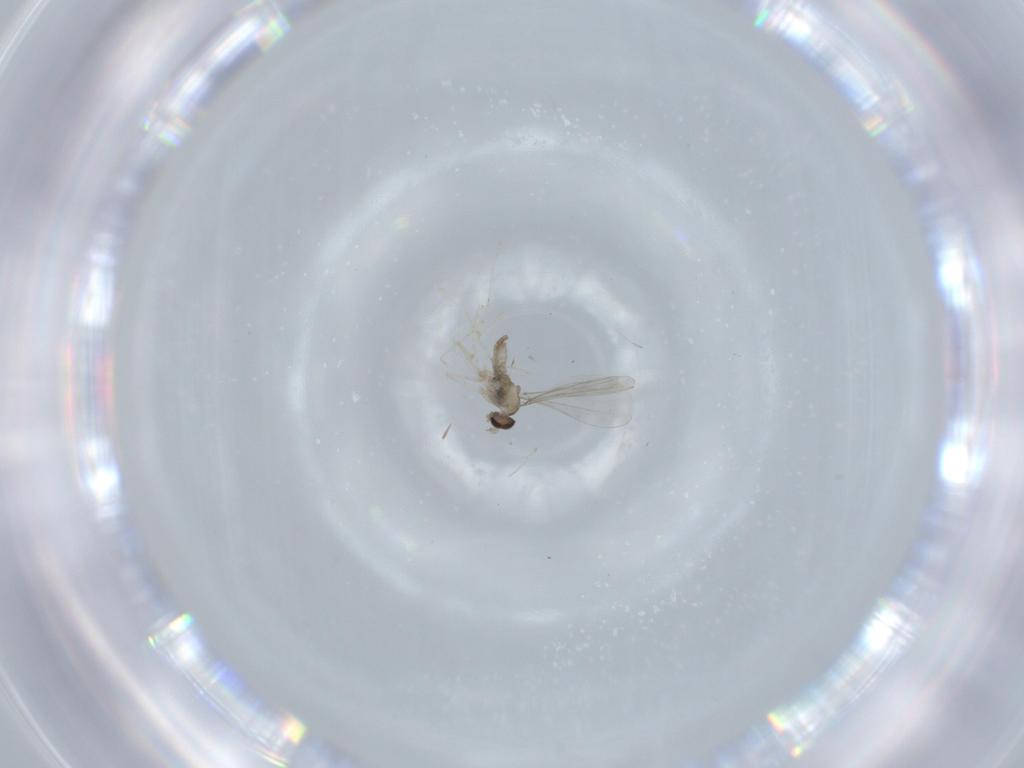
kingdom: Animalia
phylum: Arthropoda
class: Insecta
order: Diptera
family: Cecidomyiidae
